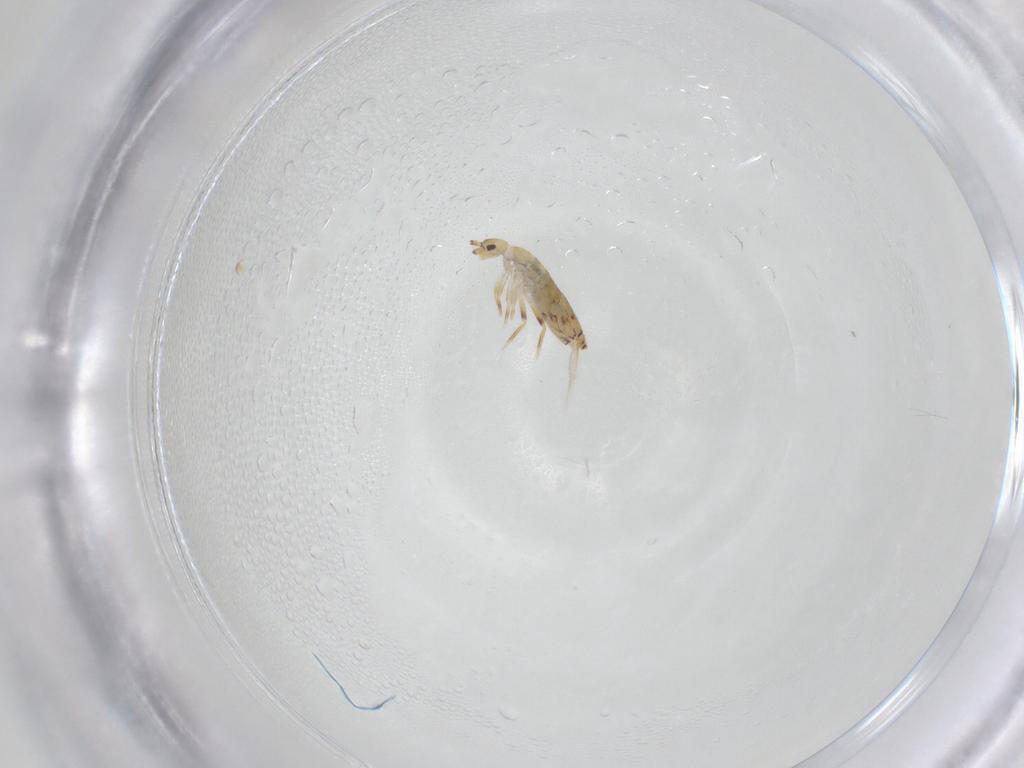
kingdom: Animalia
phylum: Arthropoda
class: Collembola
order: Entomobryomorpha
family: Entomobryidae
